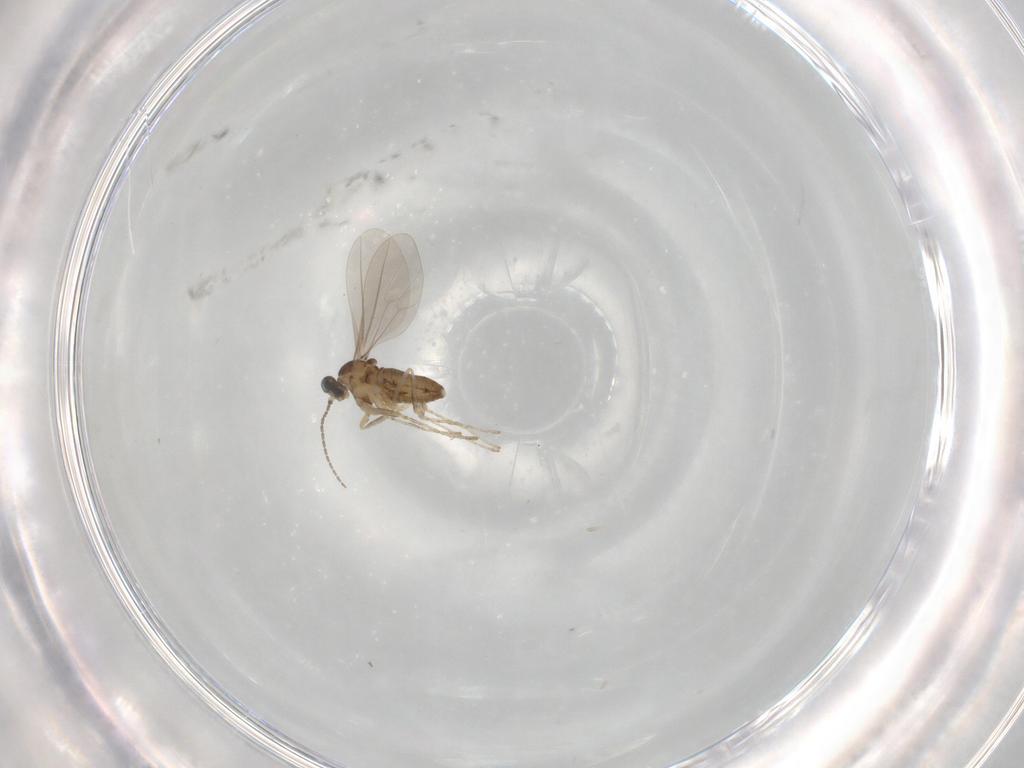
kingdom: Animalia
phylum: Arthropoda
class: Insecta
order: Diptera
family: Phoridae
